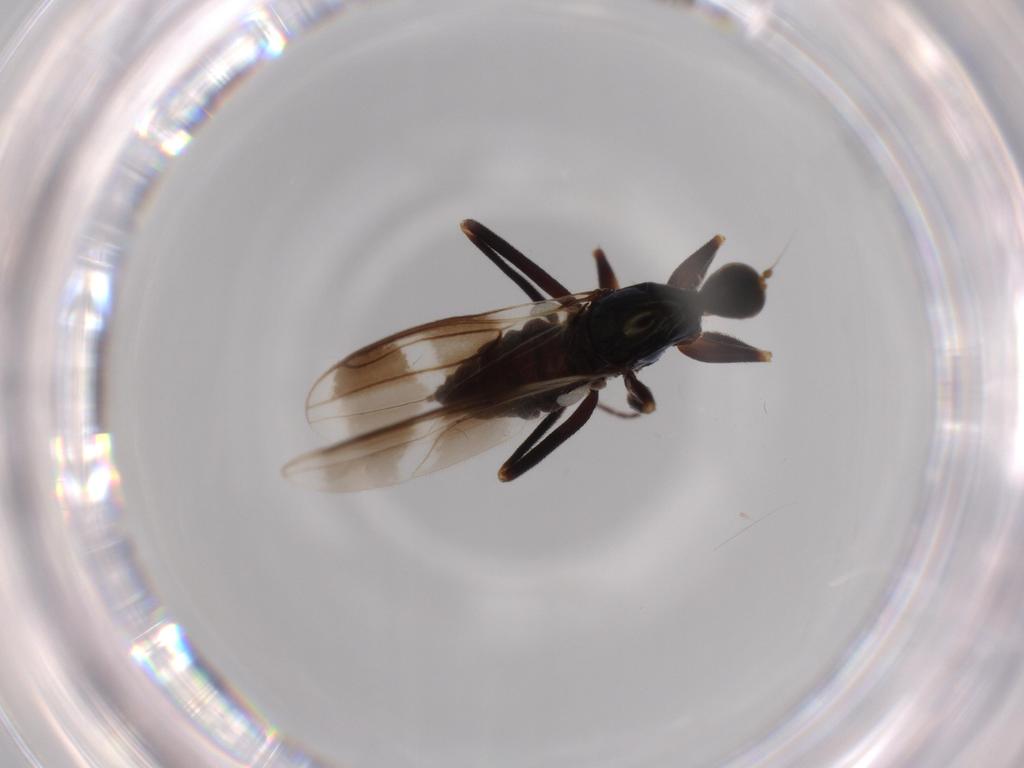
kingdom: Animalia
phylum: Arthropoda
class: Insecta
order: Diptera
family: Hybotidae
